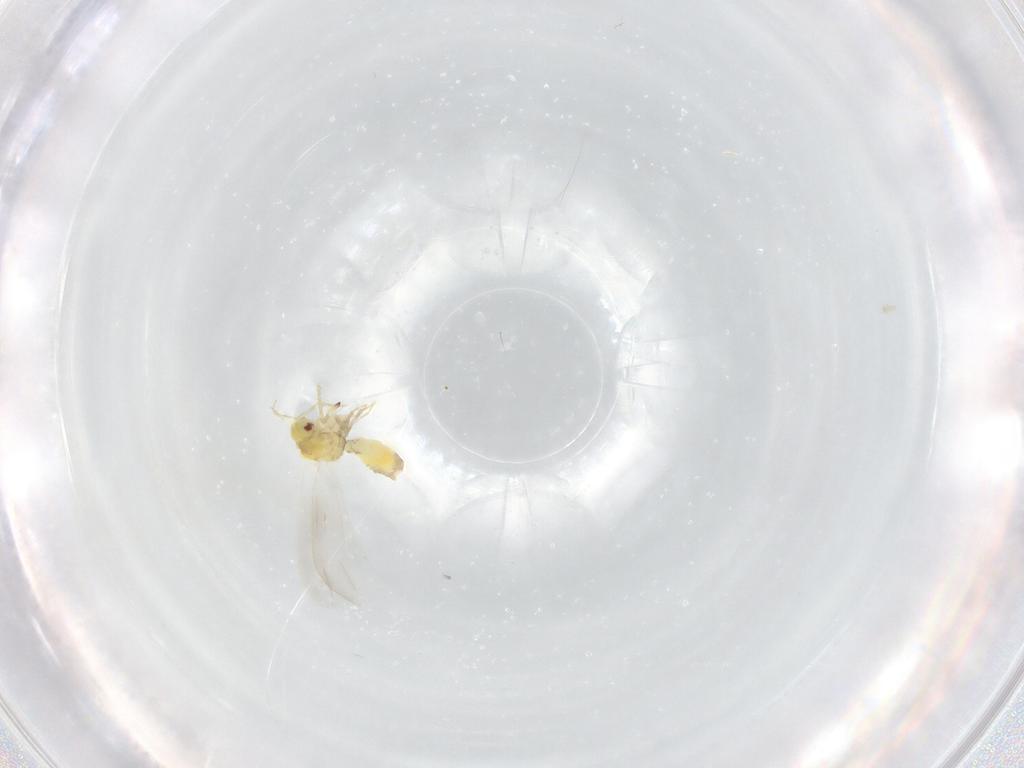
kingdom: Animalia
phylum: Arthropoda
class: Insecta
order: Hemiptera
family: Aleyrodidae
